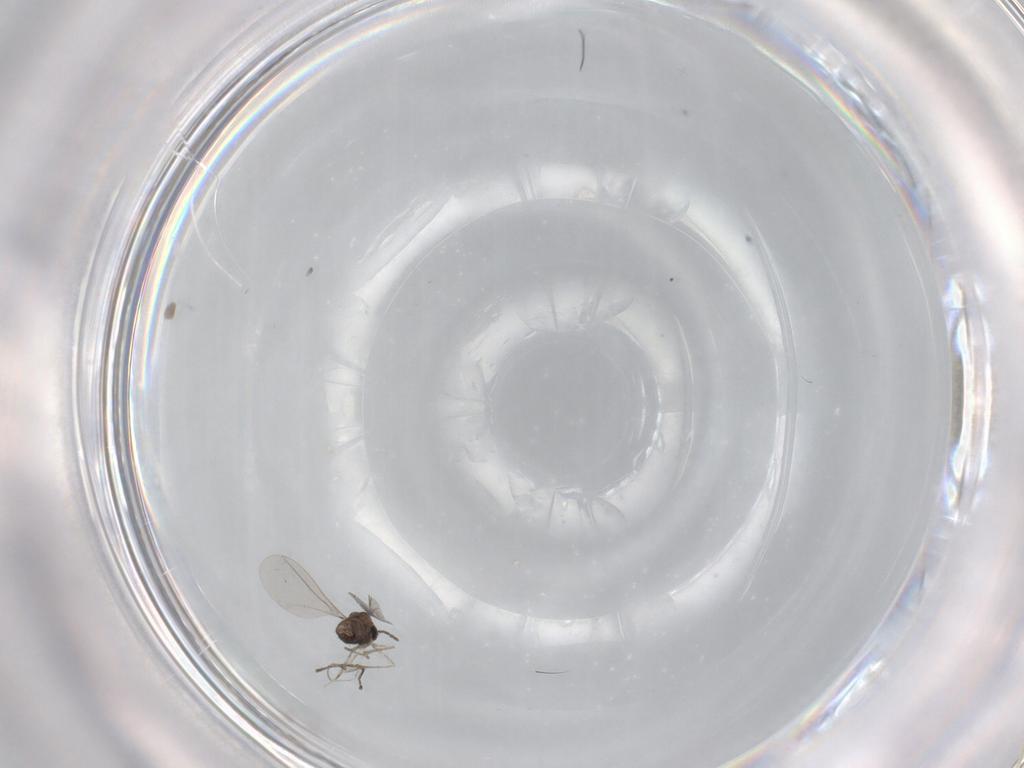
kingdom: Animalia
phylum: Arthropoda
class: Insecta
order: Diptera
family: Cecidomyiidae
